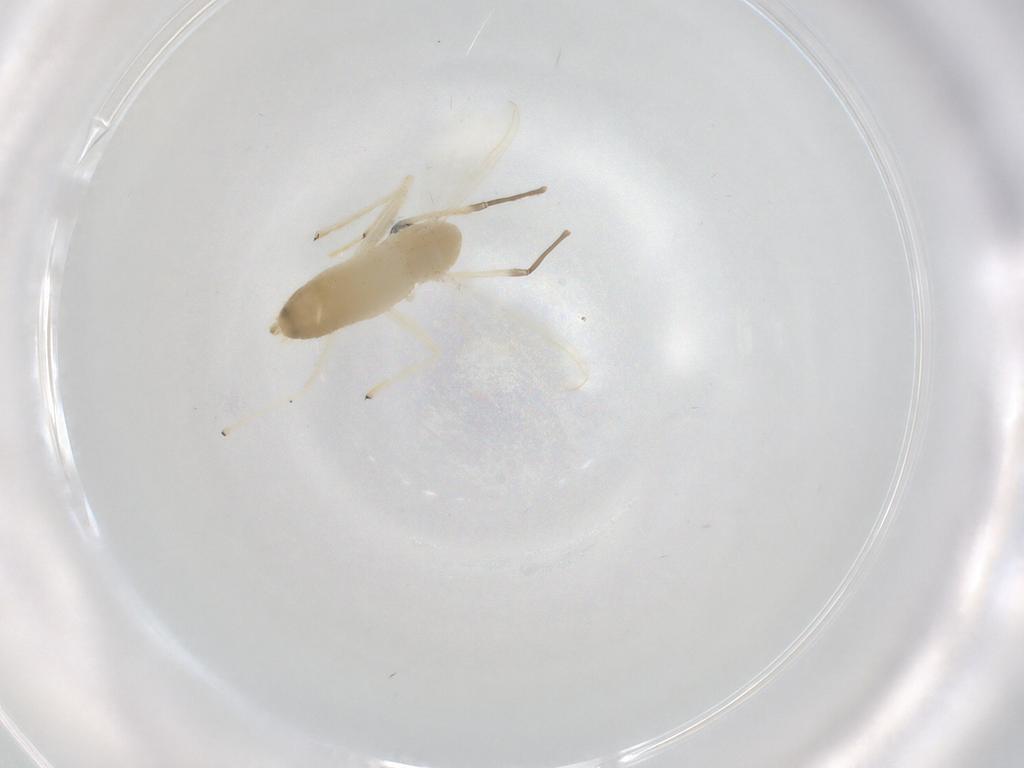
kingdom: Animalia
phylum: Arthropoda
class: Insecta
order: Diptera
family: Chironomidae
